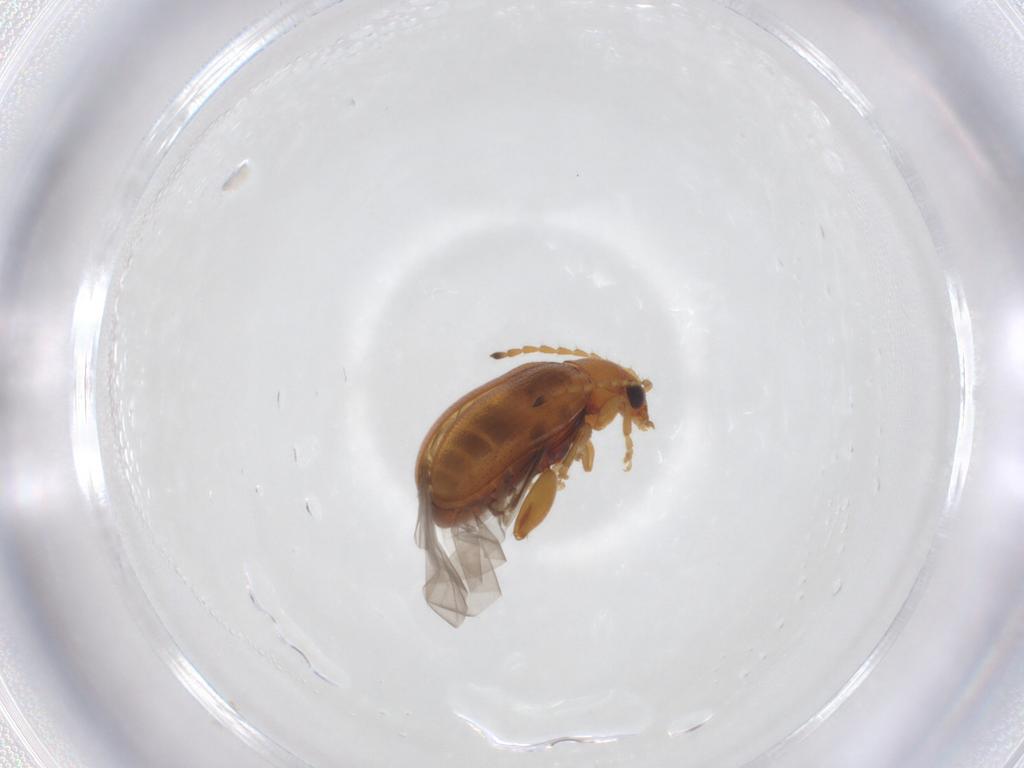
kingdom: Animalia
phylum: Arthropoda
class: Insecta
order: Coleoptera
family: Chrysomelidae
